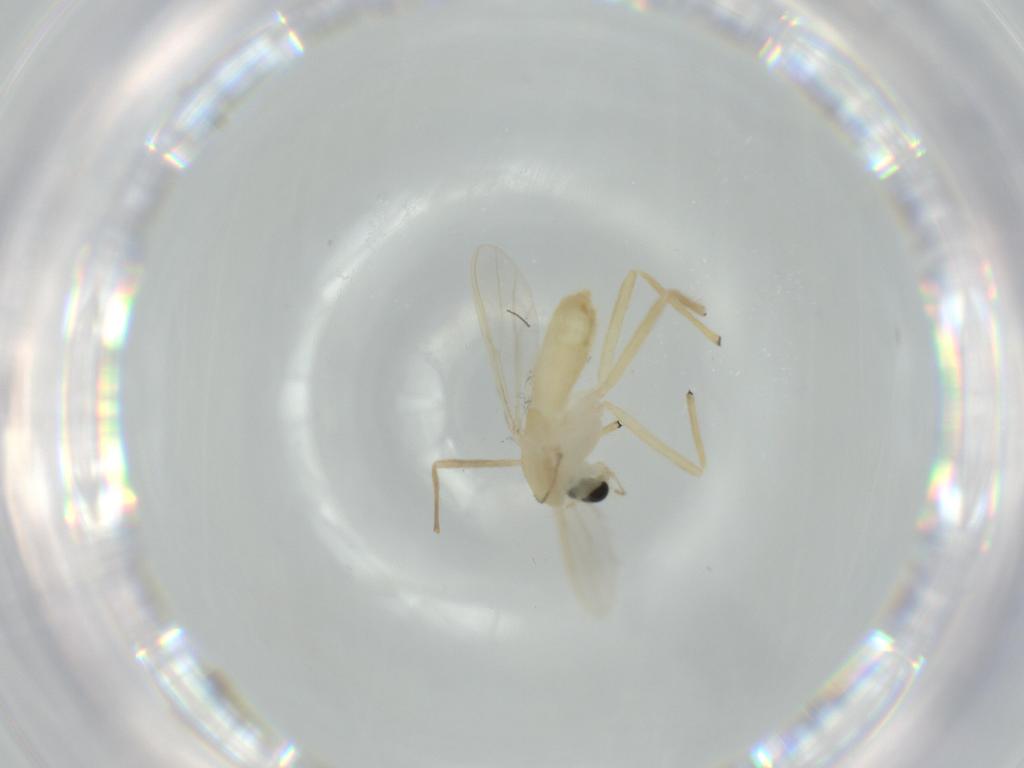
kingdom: Animalia
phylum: Arthropoda
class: Insecta
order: Diptera
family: Chironomidae
